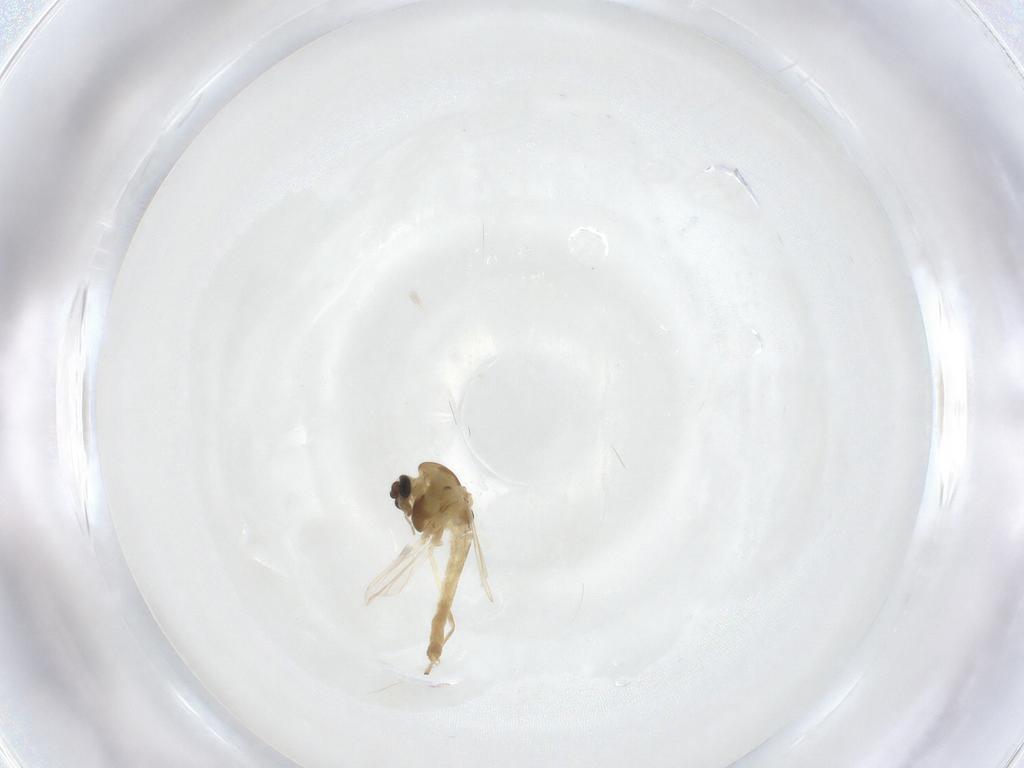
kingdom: Animalia
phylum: Arthropoda
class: Insecta
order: Diptera
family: Chironomidae
